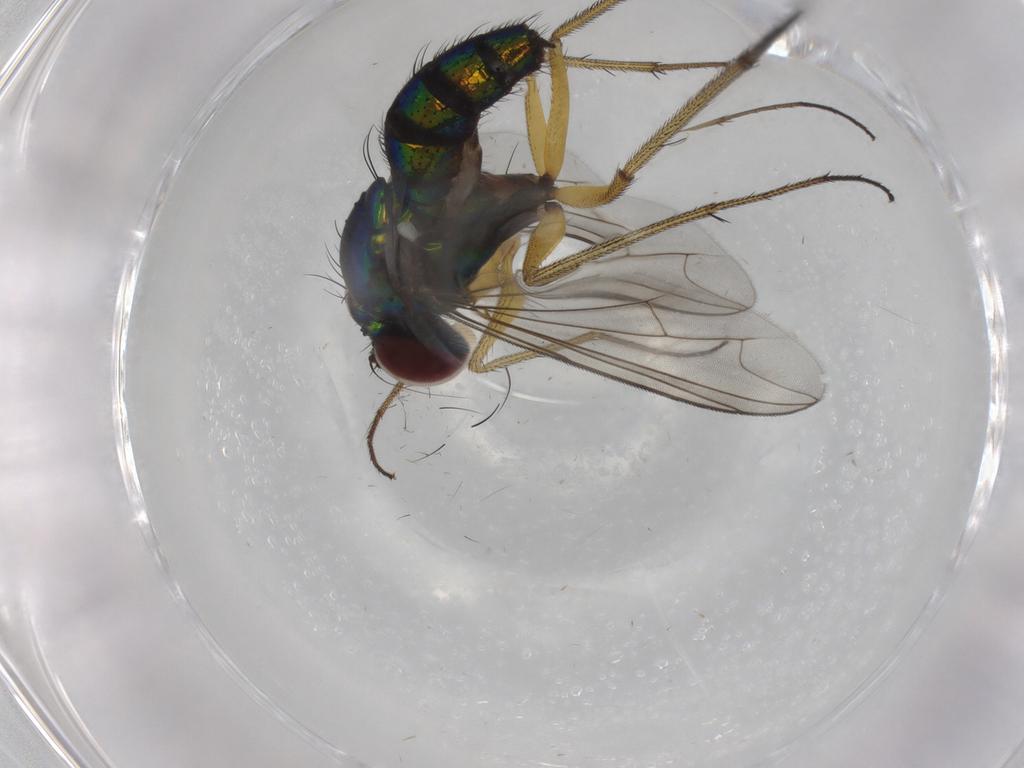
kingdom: Animalia
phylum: Arthropoda
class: Insecta
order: Diptera
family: Dolichopodidae
